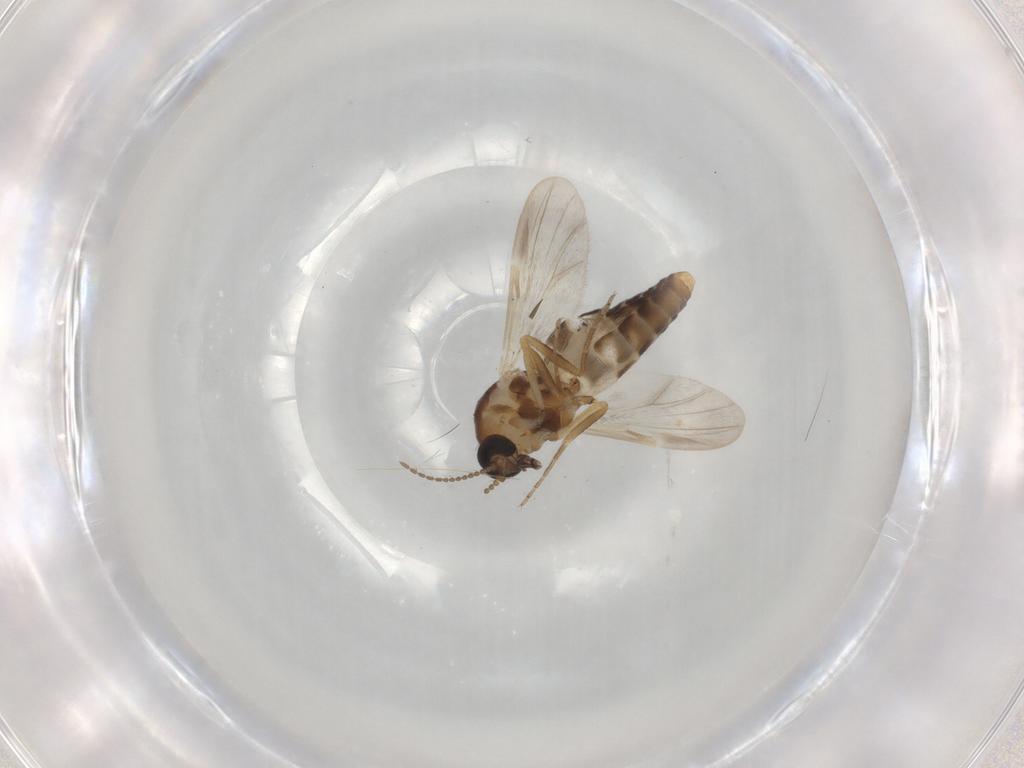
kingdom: Animalia
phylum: Arthropoda
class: Insecta
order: Diptera
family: Ceratopogonidae
